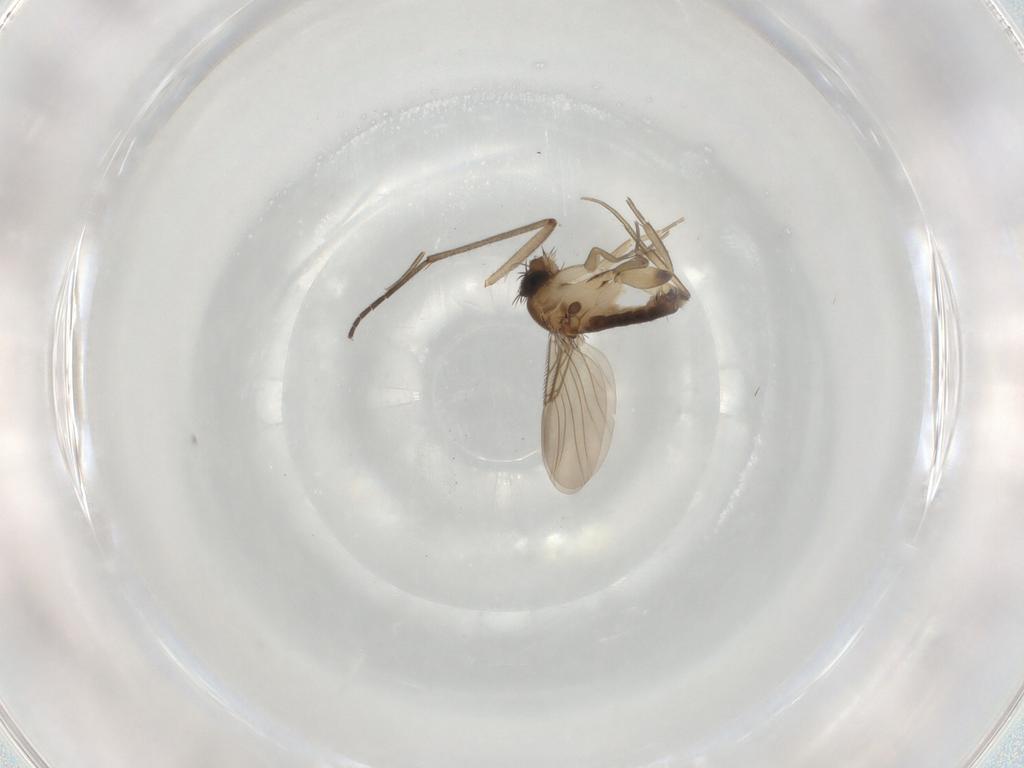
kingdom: Animalia
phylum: Arthropoda
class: Insecta
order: Diptera
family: Phoridae
